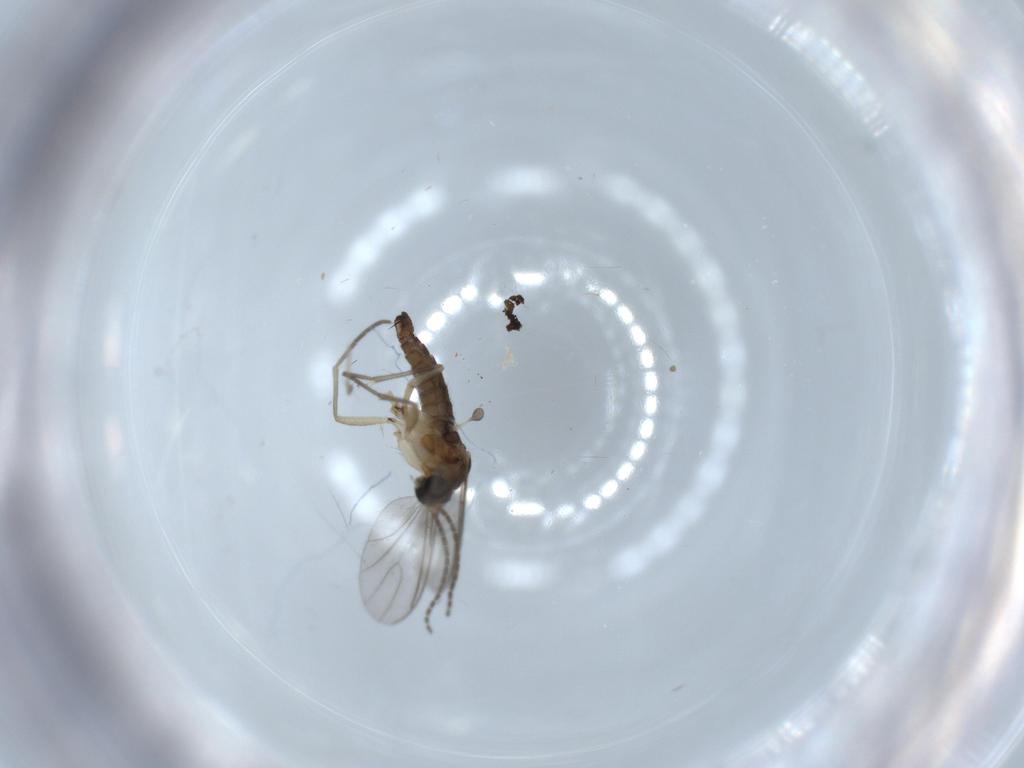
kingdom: Animalia
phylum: Arthropoda
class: Insecta
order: Diptera
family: Sciaridae
